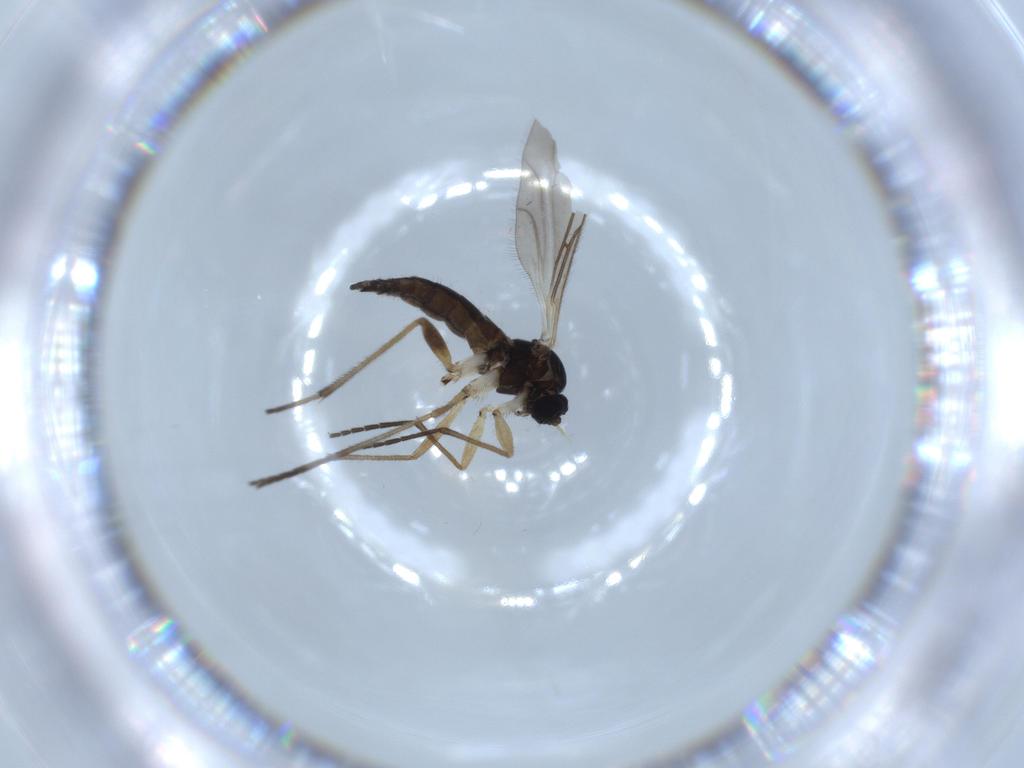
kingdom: Animalia
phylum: Arthropoda
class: Insecta
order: Diptera
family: Sciaridae
